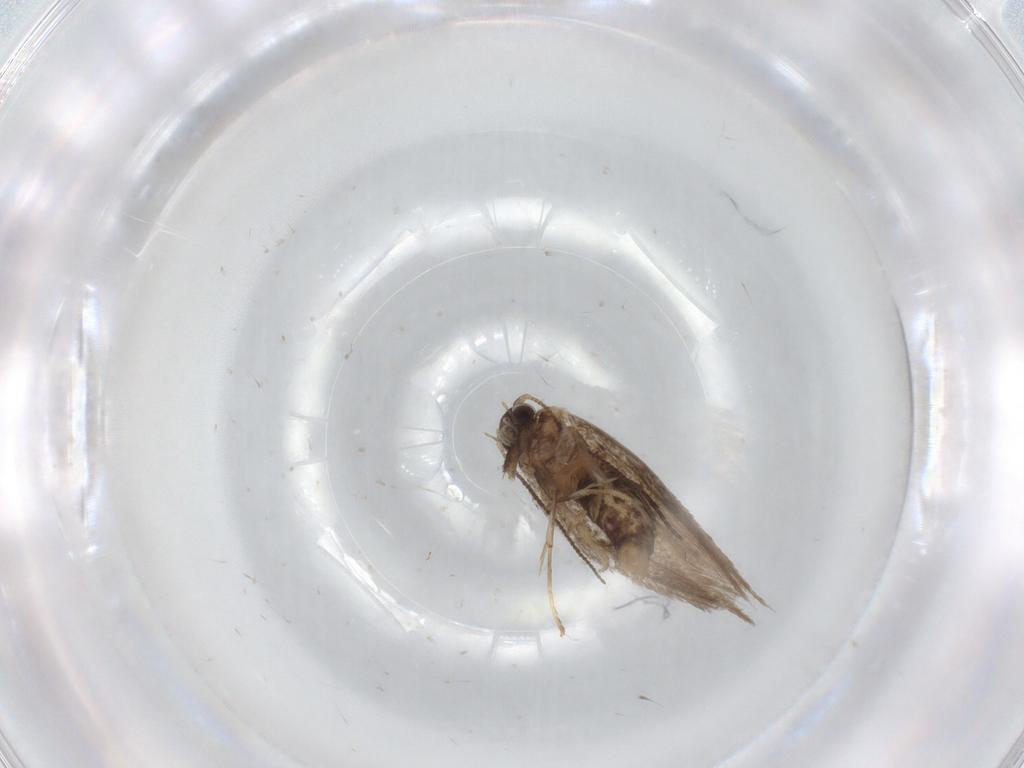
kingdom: Animalia
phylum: Arthropoda
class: Insecta
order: Lepidoptera
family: Nepticulidae
